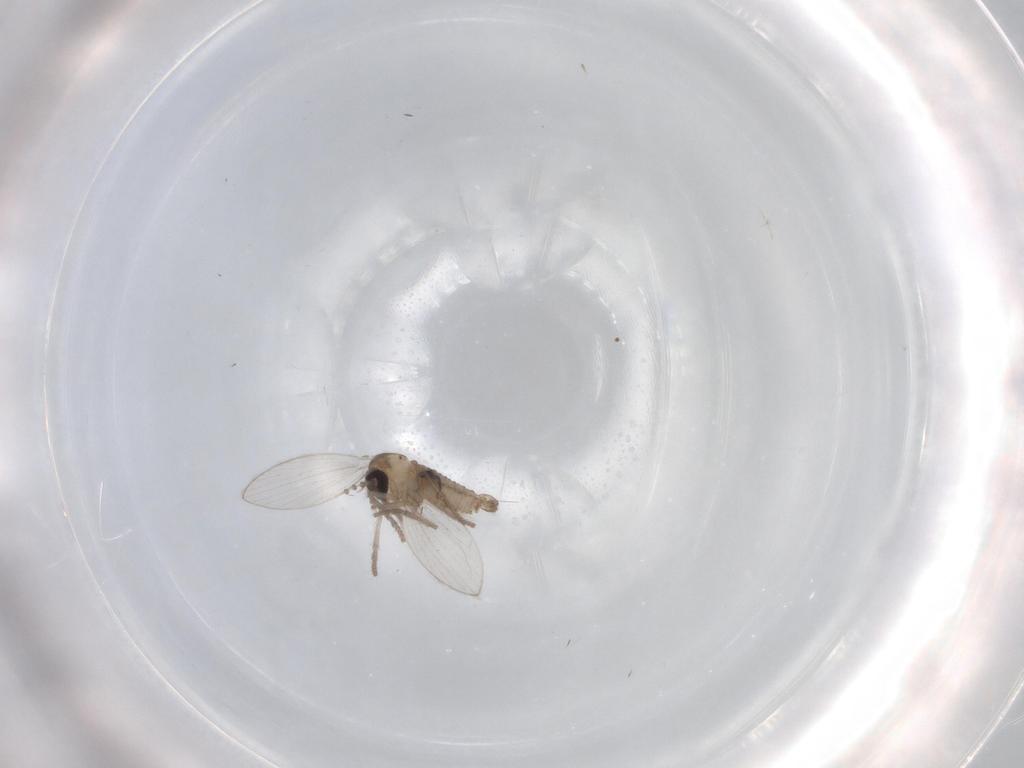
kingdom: Animalia
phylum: Arthropoda
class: Insecta
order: Diptera
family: Psychodidae
